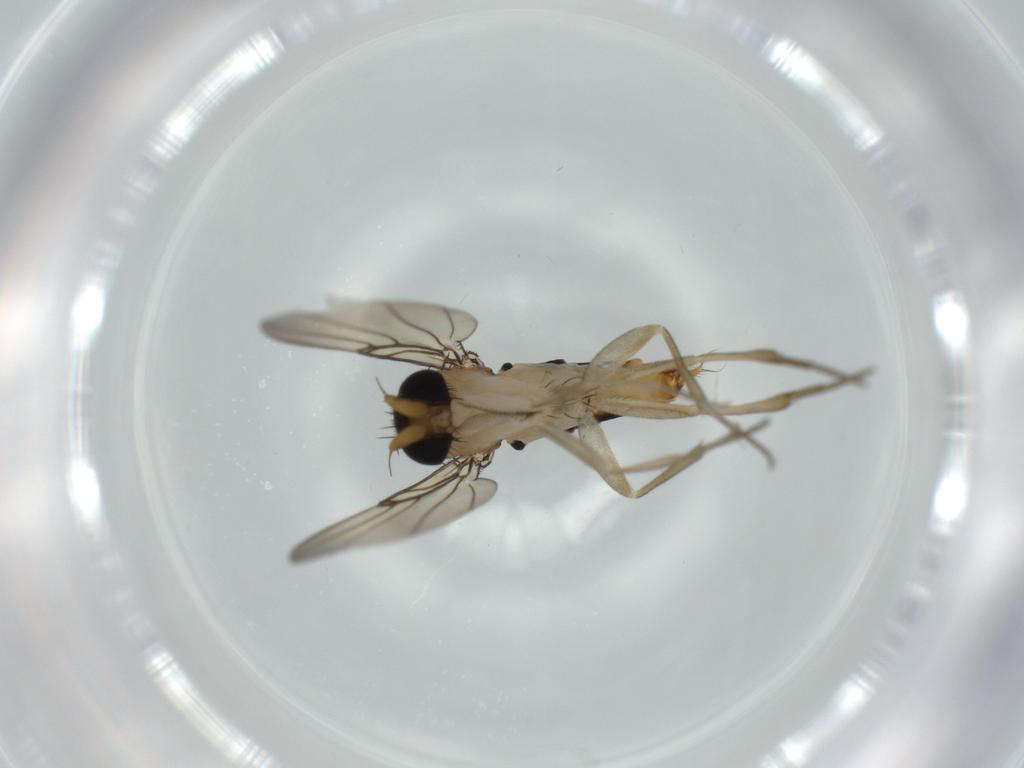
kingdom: Animalia
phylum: Arthropoda
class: Insecta
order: Diptera
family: Phoridae
